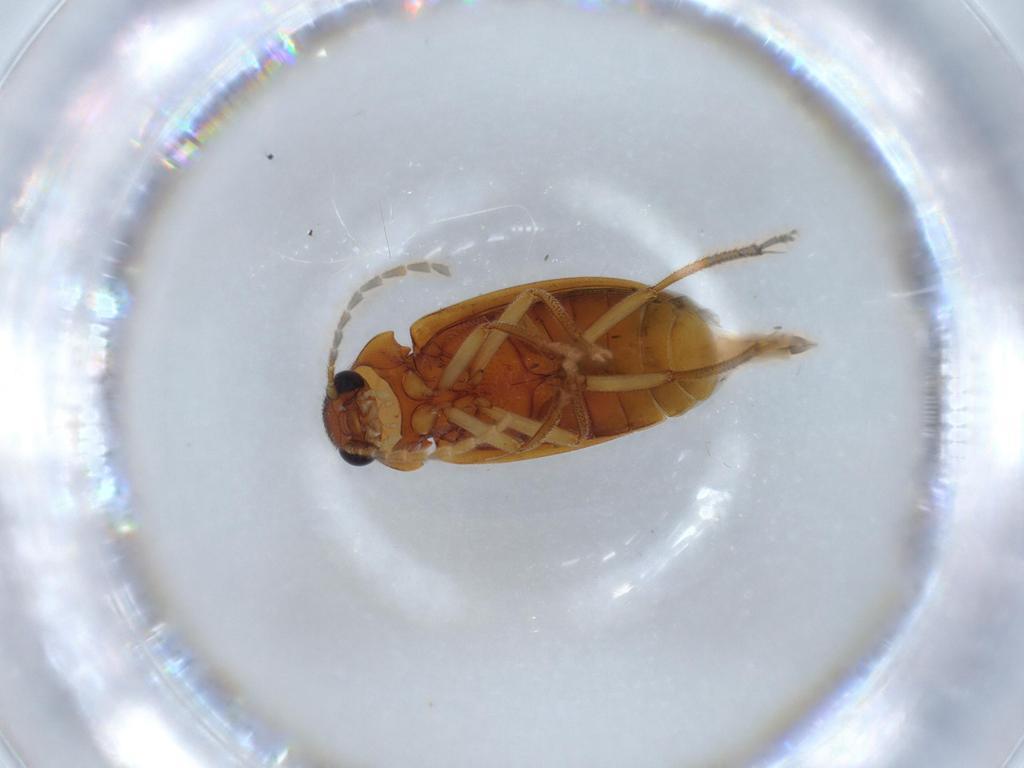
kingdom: Animalia
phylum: Arthropoda
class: Insecta
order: Coleoptera
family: Ptilodactylidae
